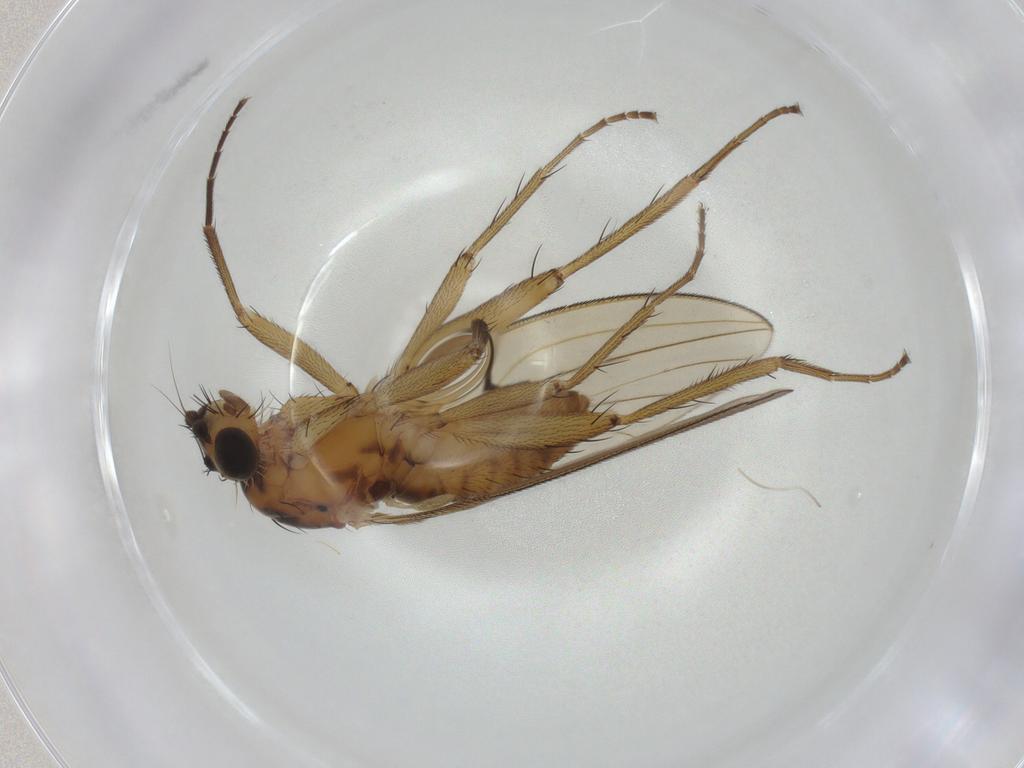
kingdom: Animalia
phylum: Arthropoda
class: Insecta
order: Diptera
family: Lonchopteridae
